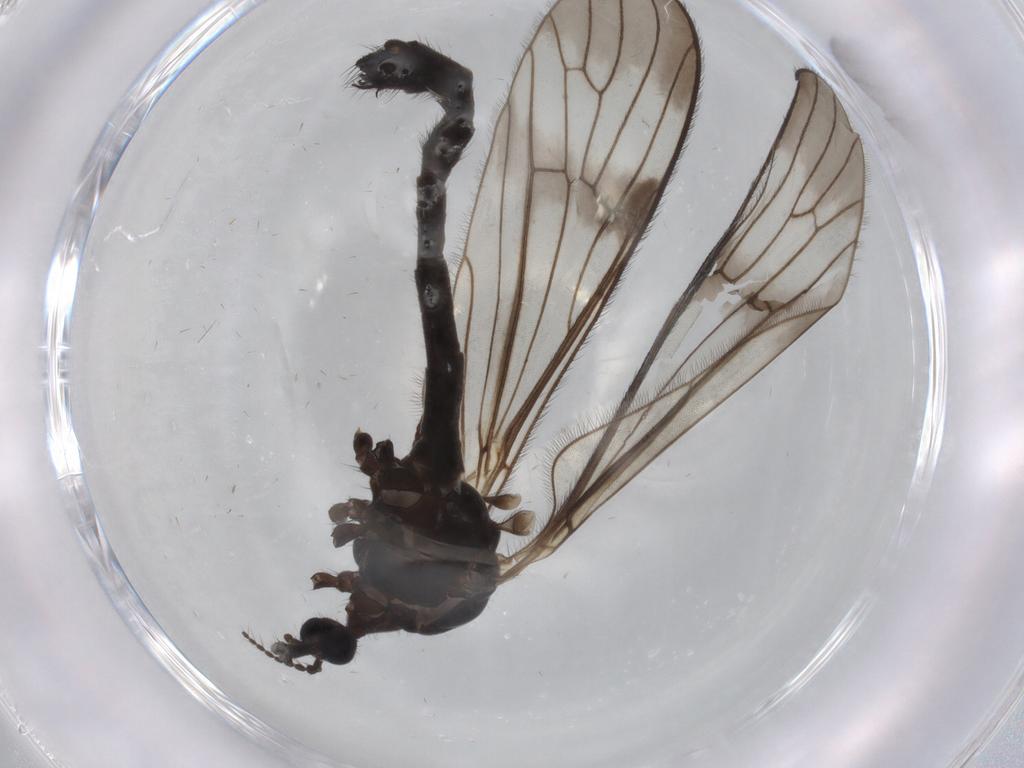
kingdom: Animalia
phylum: Arthropoda
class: Insecta
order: Diptera
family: Limoniidae
